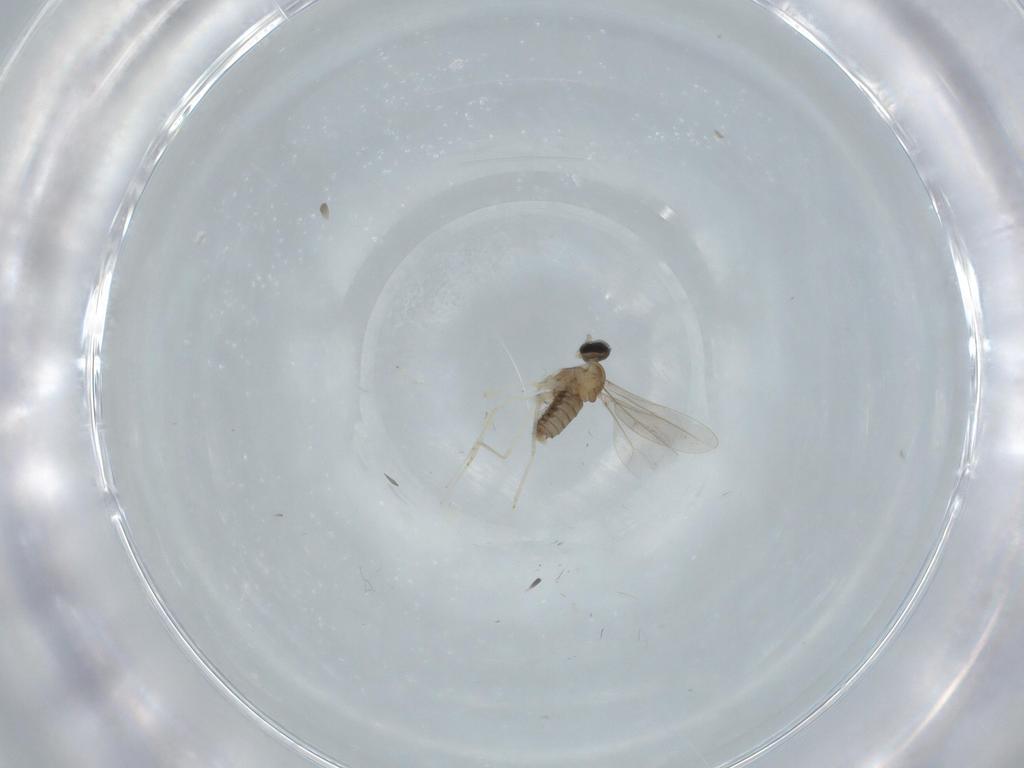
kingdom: Animalia
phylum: Arthropoda
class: Insecta
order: Diptera
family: Cecidomyiidae
